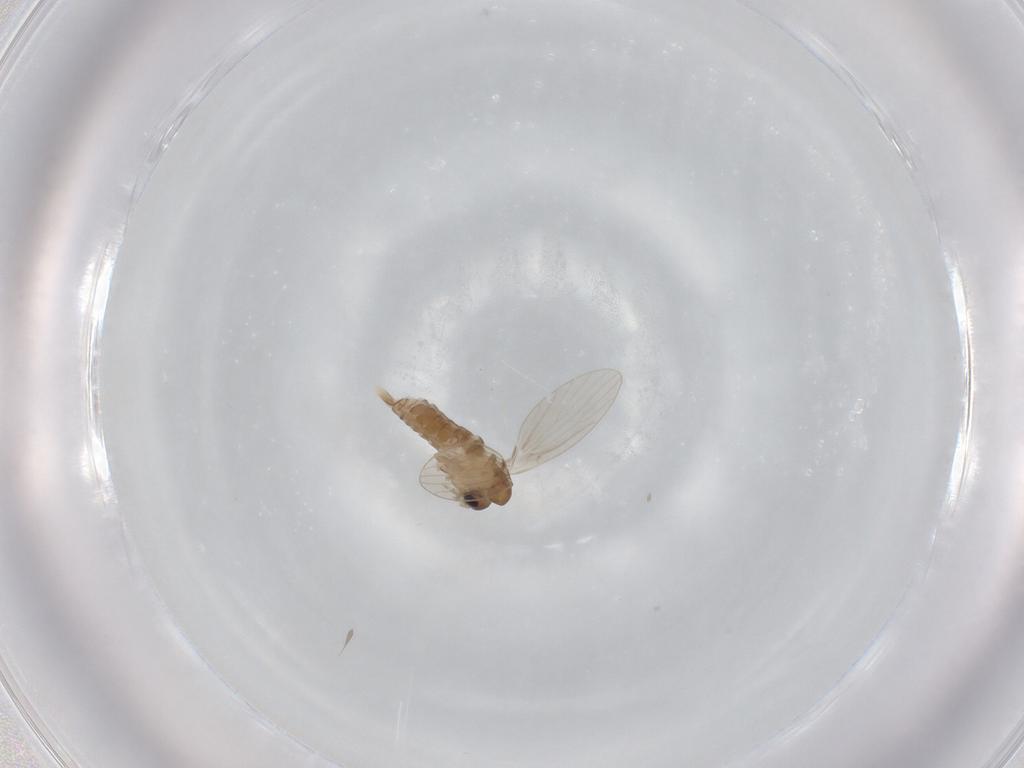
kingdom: Animalia
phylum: Arthropoda
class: Insecta
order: Diptera
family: Psychodidae
